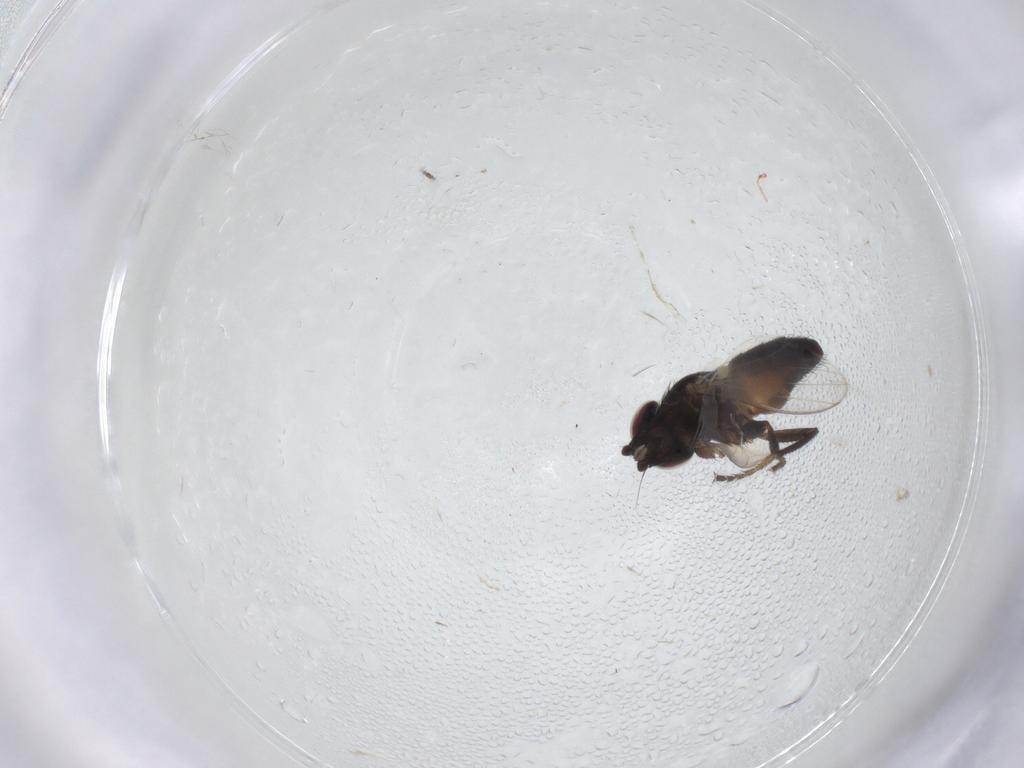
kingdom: Animalia
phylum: Arthropoda
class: Insecta
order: Diptera
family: Milichiidae
